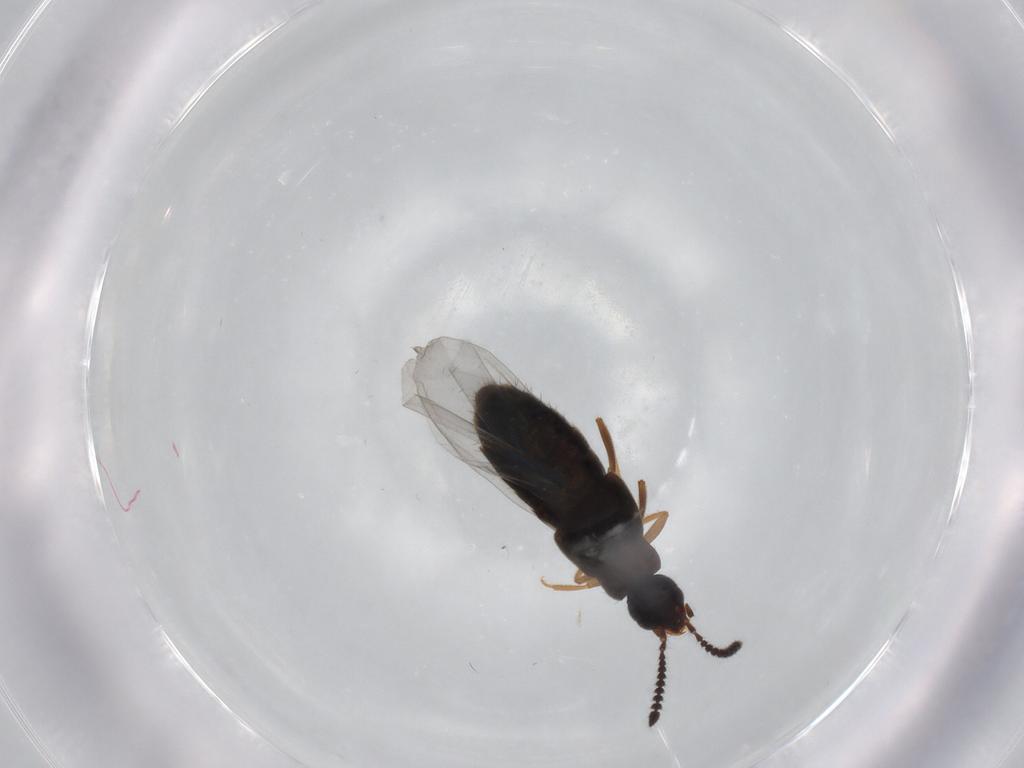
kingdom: Animalia
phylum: Arthropoda
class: Insecta
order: Coleoptera
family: Staphylinidae
